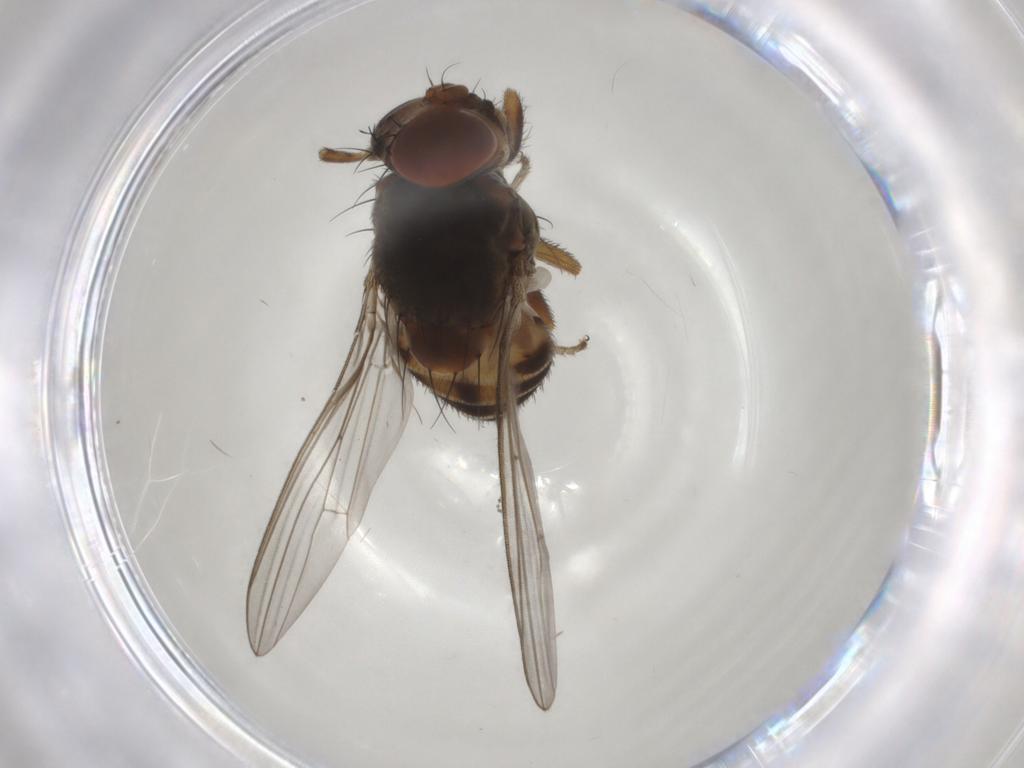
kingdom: Animalia
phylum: Arthropoda
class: Insecta
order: Diptera
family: Drosophilidae
